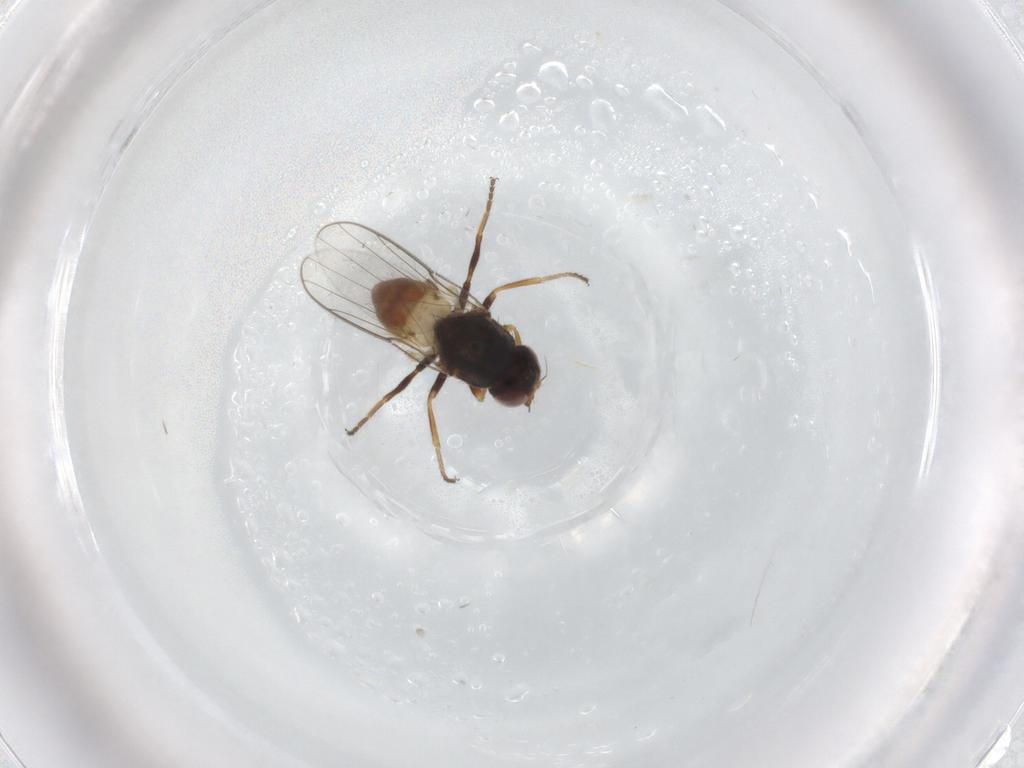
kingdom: Animalia
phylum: Arthropoda
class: Insecta
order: Diptera
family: Chloropidae
